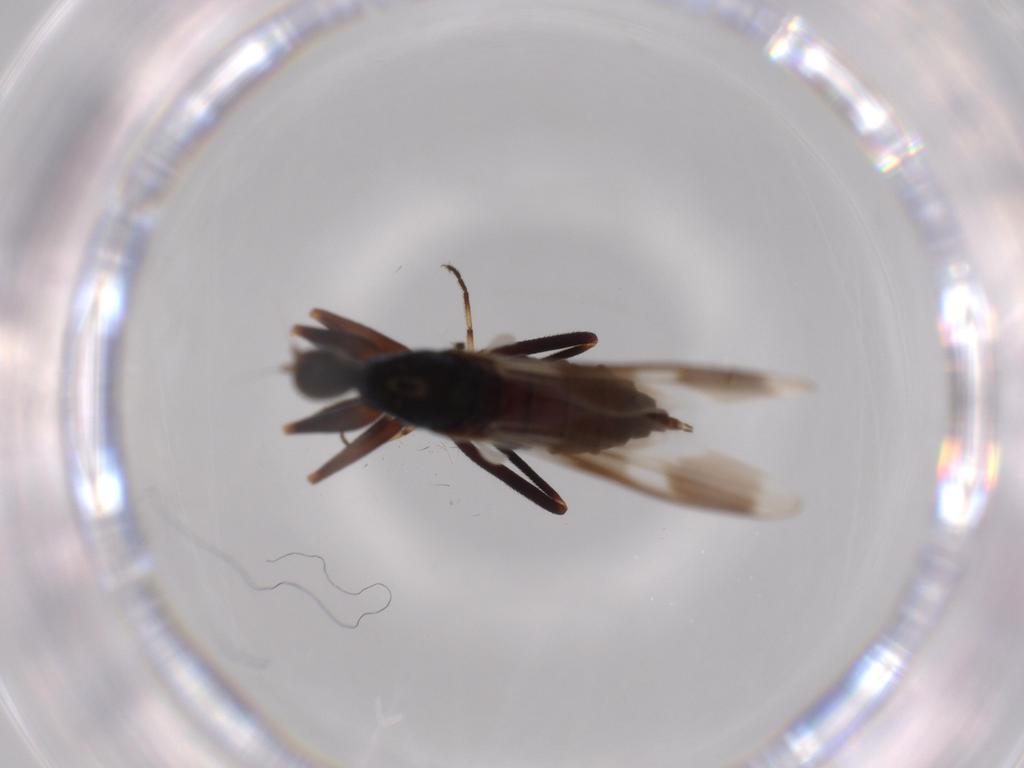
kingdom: Animalia
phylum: Arthropoda
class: Insecta
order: Diptera
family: Hybotidae
